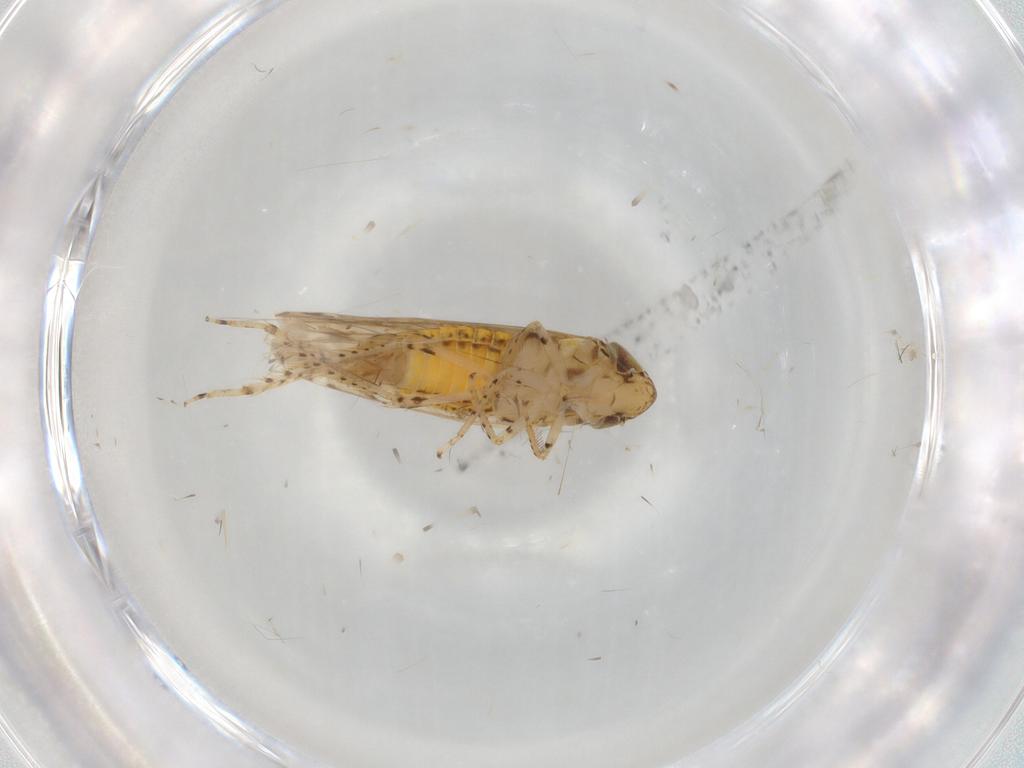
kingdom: Animalia
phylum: Arthropoda
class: Insecta
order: Hemiptera
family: Cicadellidae
